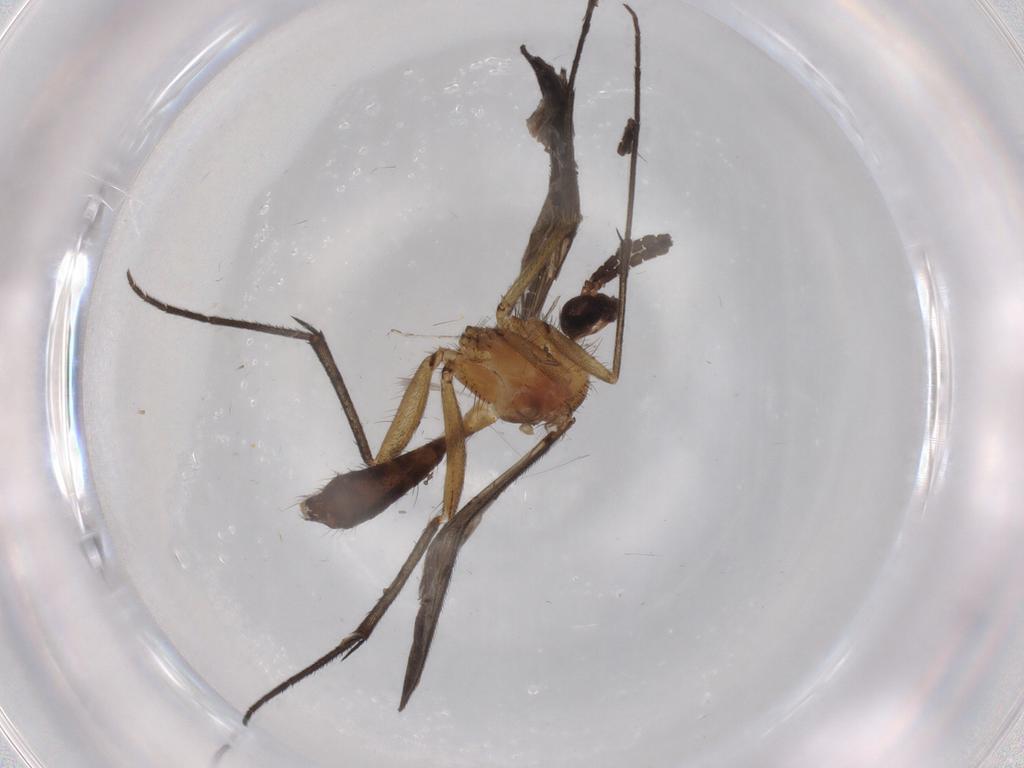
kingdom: Animalia
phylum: Arthropoda
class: Insecta
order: Diptera
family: Mycetophilidae
